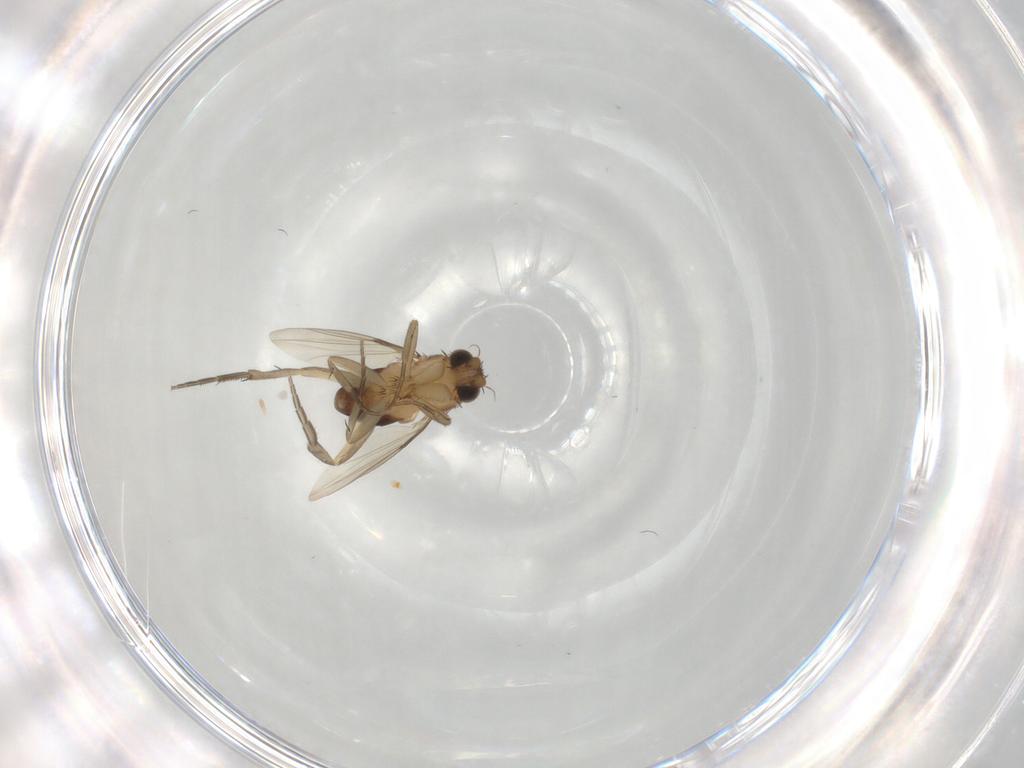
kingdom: Animalia
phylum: Arthropoda
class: Insecta
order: Diptera
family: Phoridae
